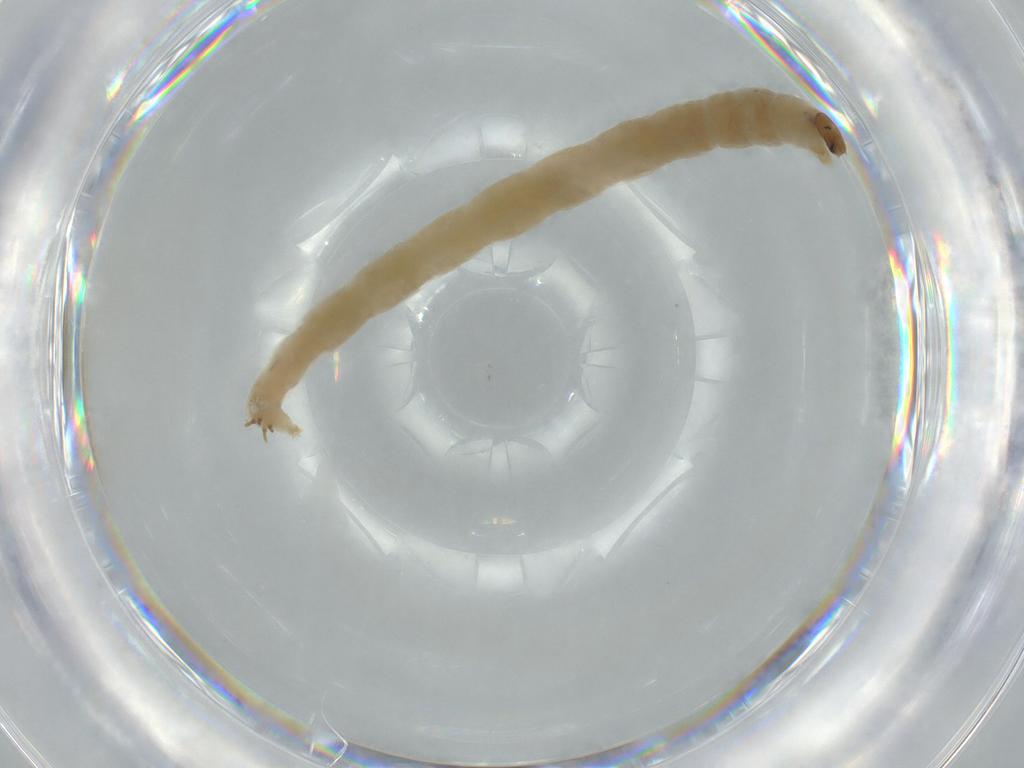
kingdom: Animalia
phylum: Arthropoda
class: Insecta
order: Diptera
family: Chironomidae
